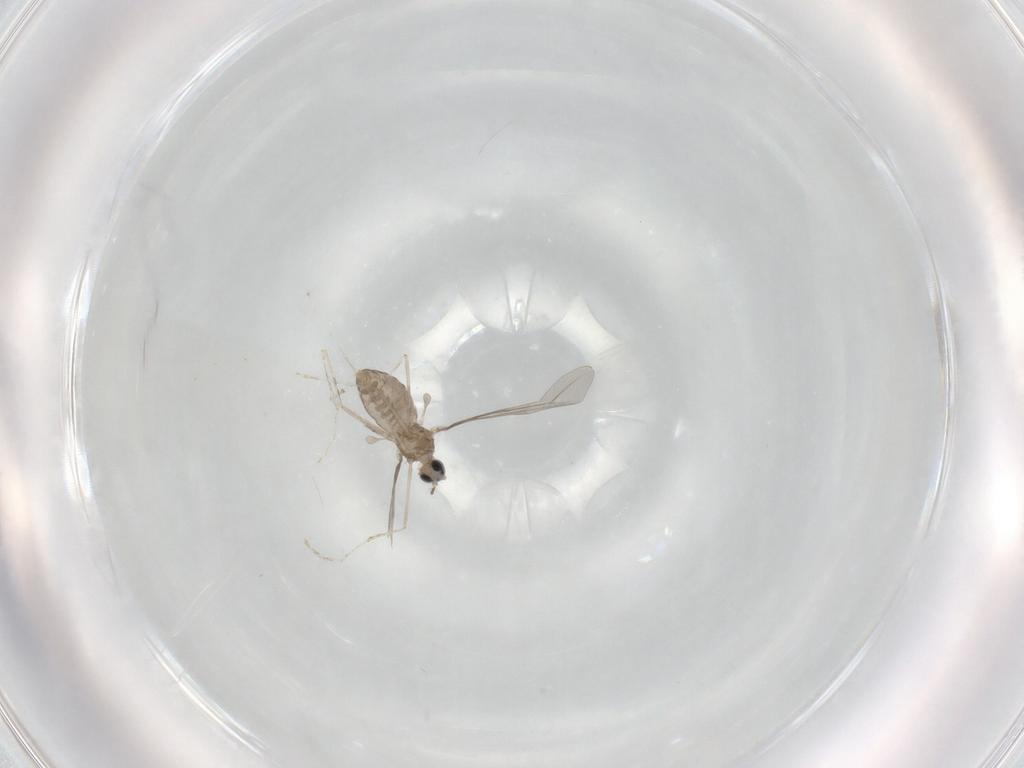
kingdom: Animalia
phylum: Arthropoda
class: Insecta
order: Diptera
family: Cecidomyiidae
